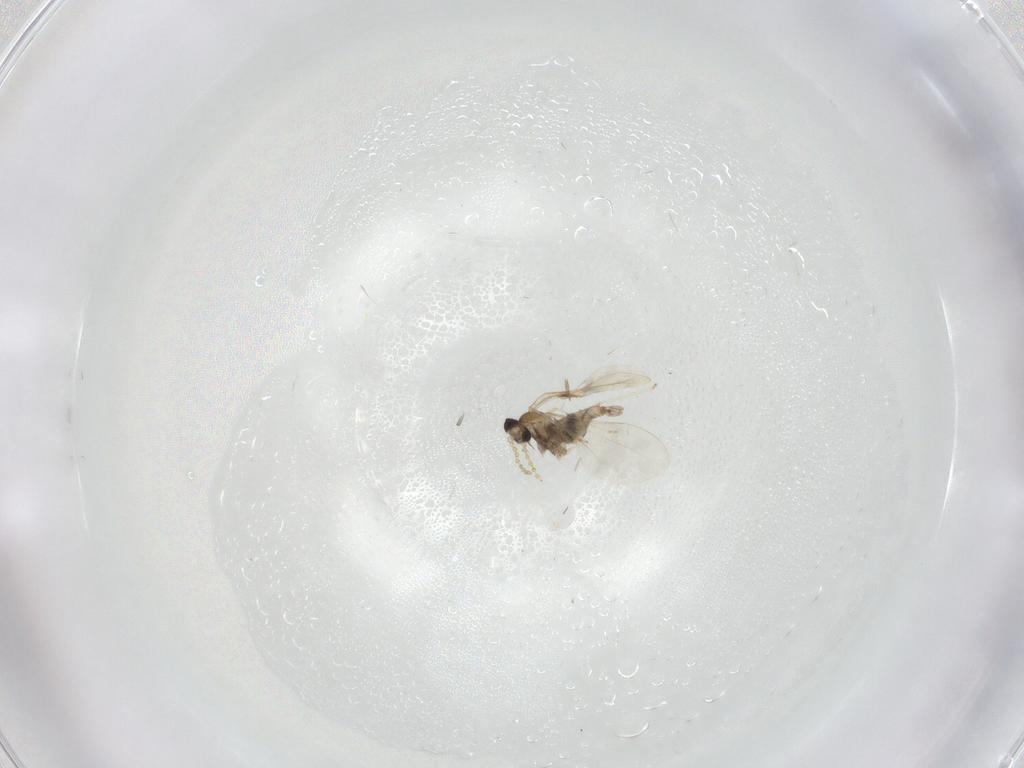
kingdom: Animalia
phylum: Arthropoda
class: Insecta
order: Diptera
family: Cecidomyiidae
